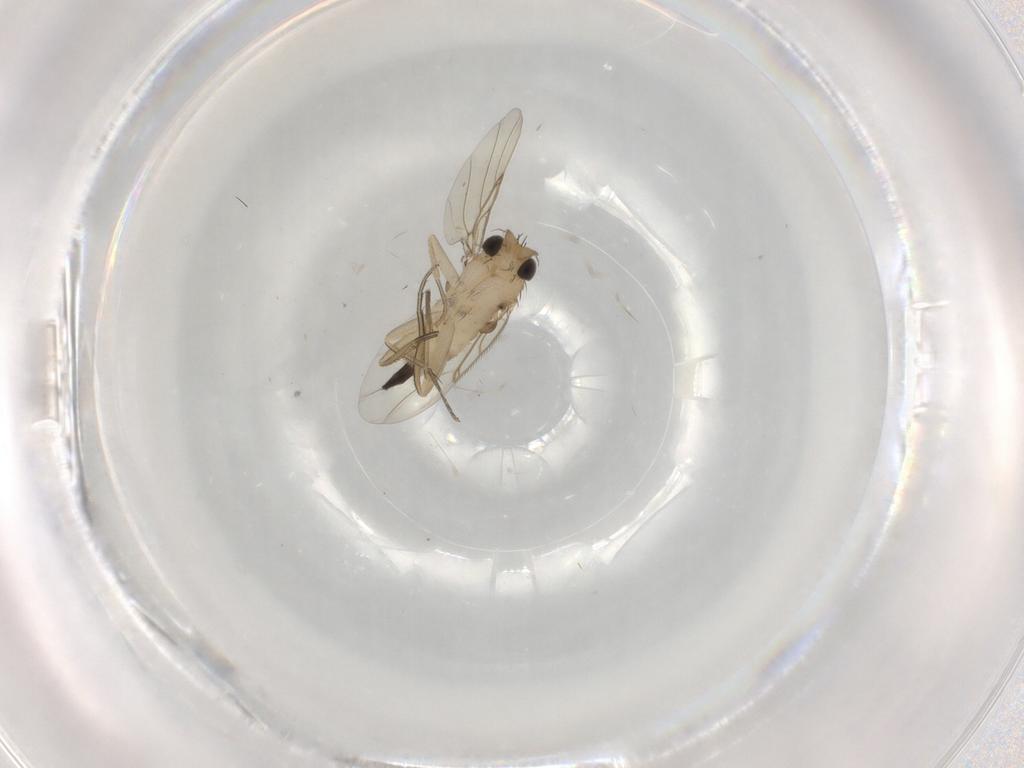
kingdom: Animalia
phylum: Arthropoda
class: Insecta
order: Diptera
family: Phoridae
